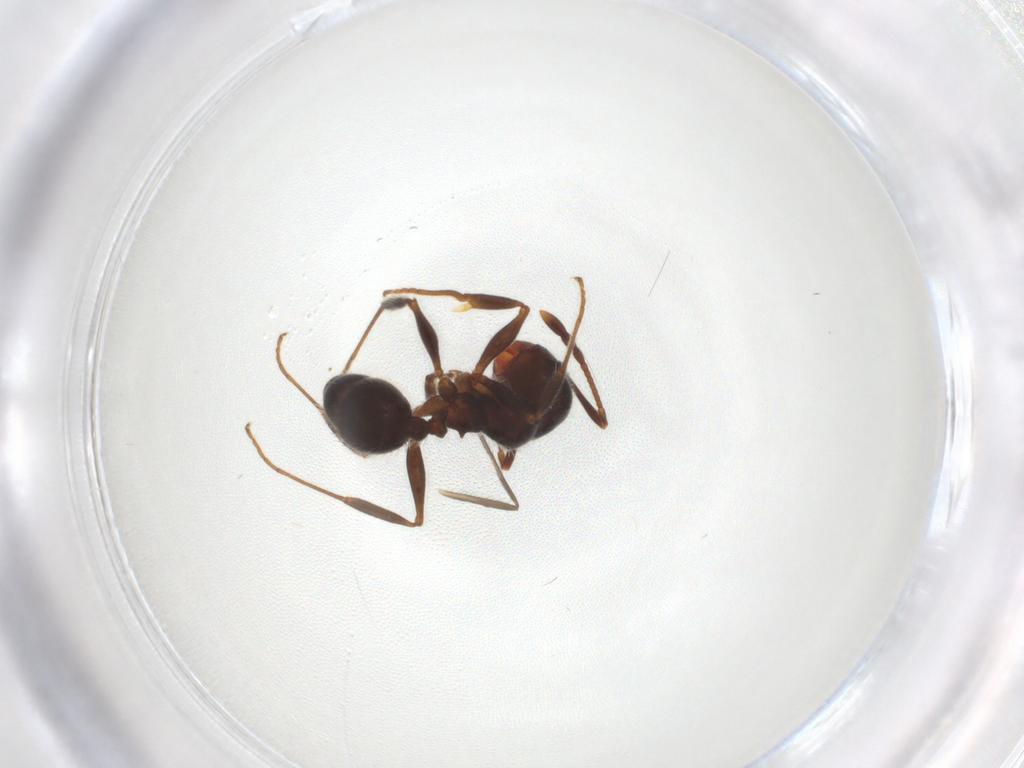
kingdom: Animalia
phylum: Arthropoda
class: Insecta
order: Hymenoptera
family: Formicidae
